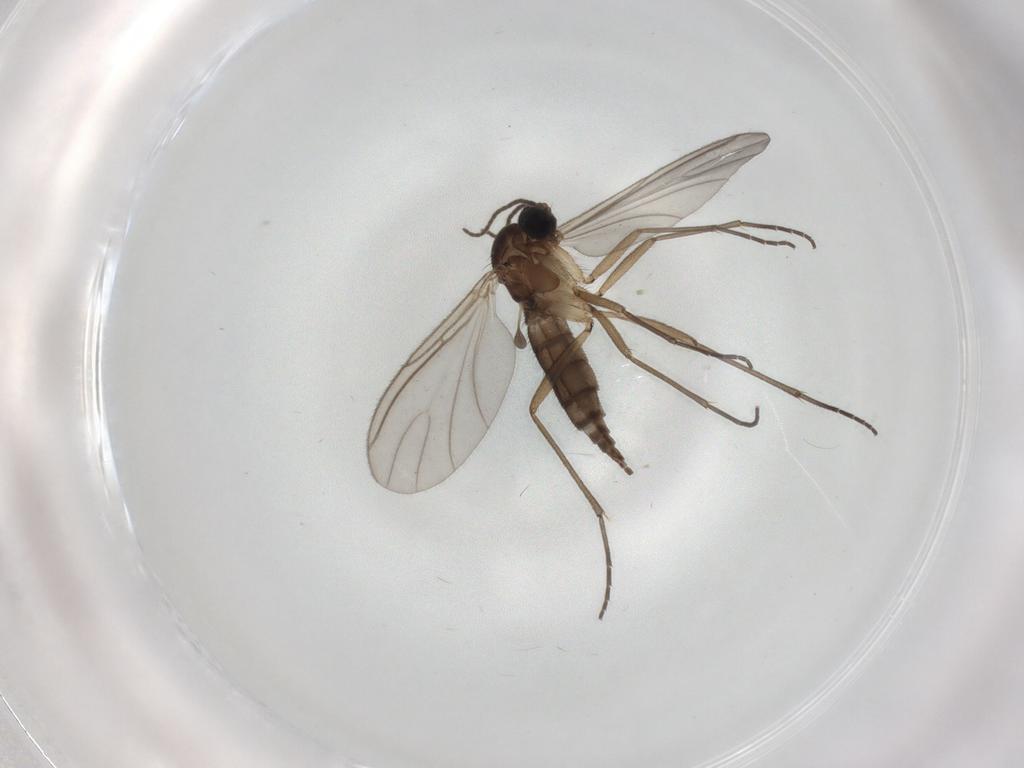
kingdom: Animalia
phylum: Arthropoda
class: Insecta
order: Diptera
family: Sciaridae
